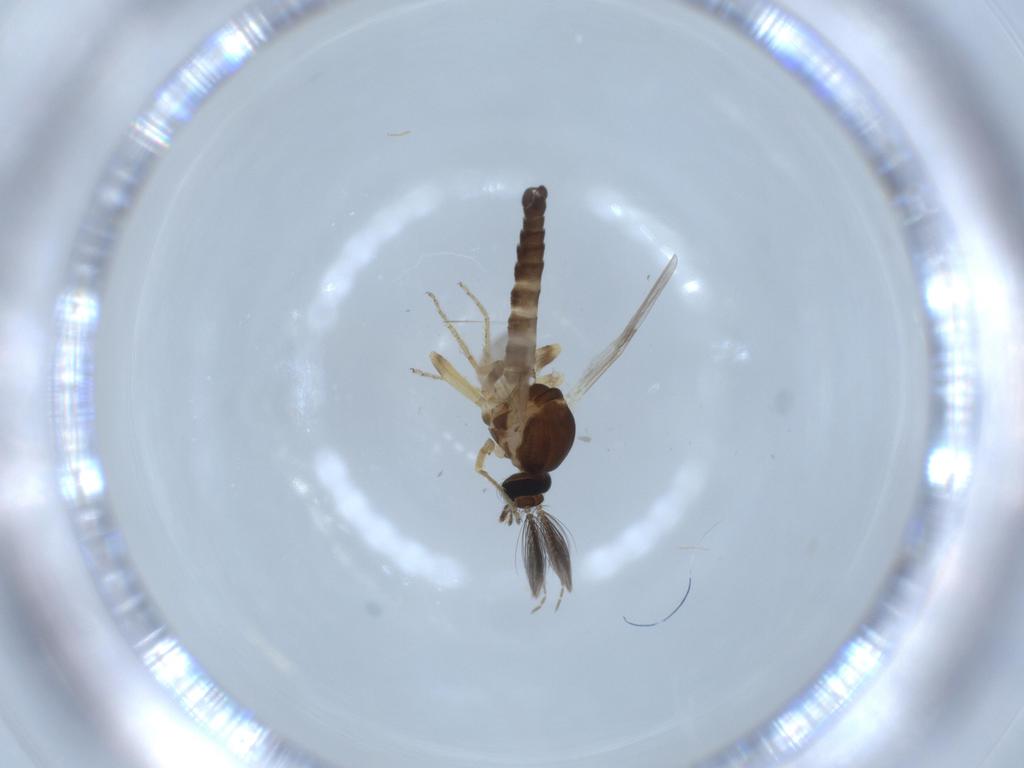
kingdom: Animalia
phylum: Arthropoda
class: Insecta
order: Diptera
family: Ceratopogonidae
